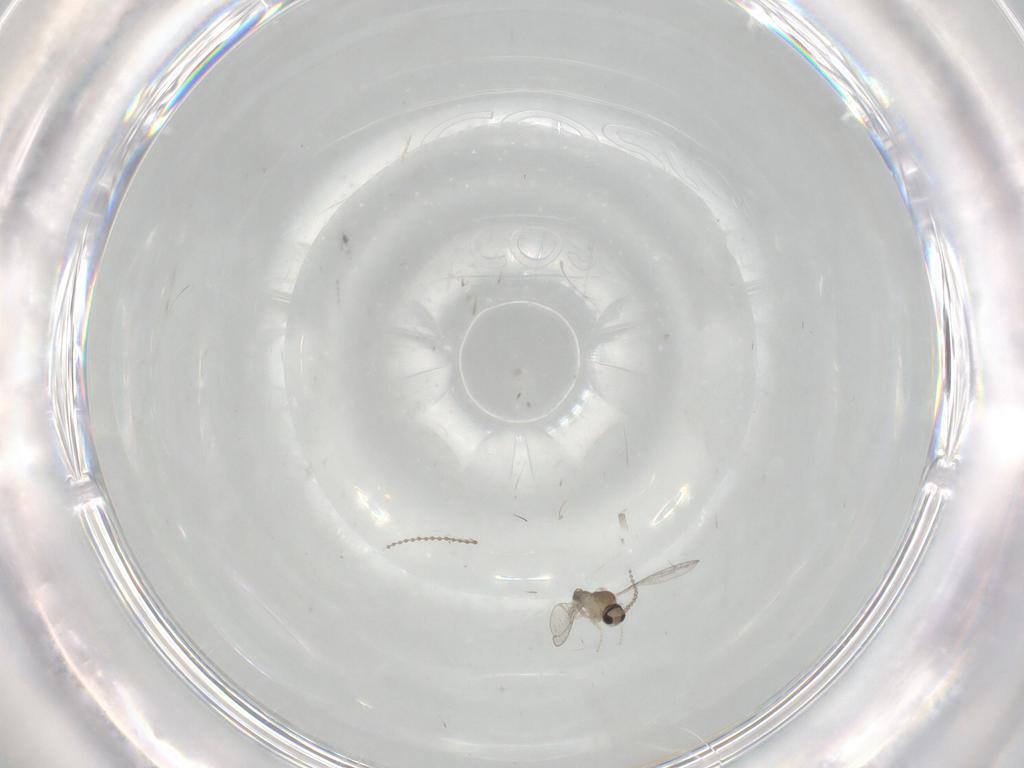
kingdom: Animalia
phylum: Arthropoda
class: Insecta
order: Diptera
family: Cecidomyiidae
